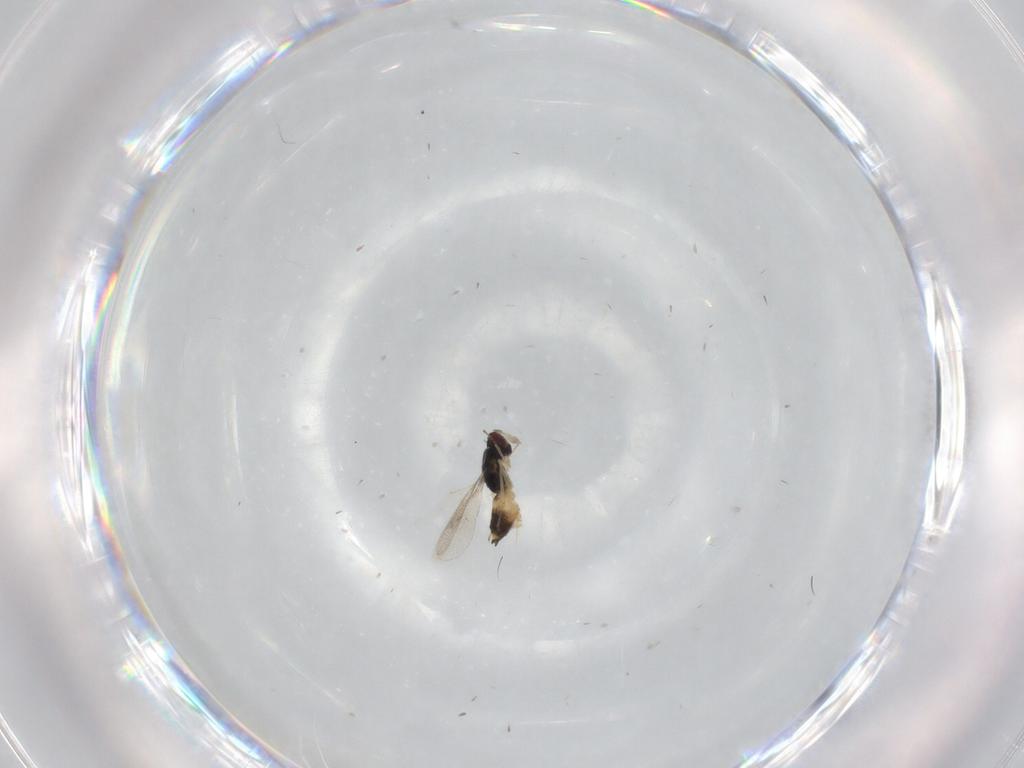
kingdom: Animalia
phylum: Arthropoda
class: Insecta
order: Hymenoptera
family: Eulophidae
